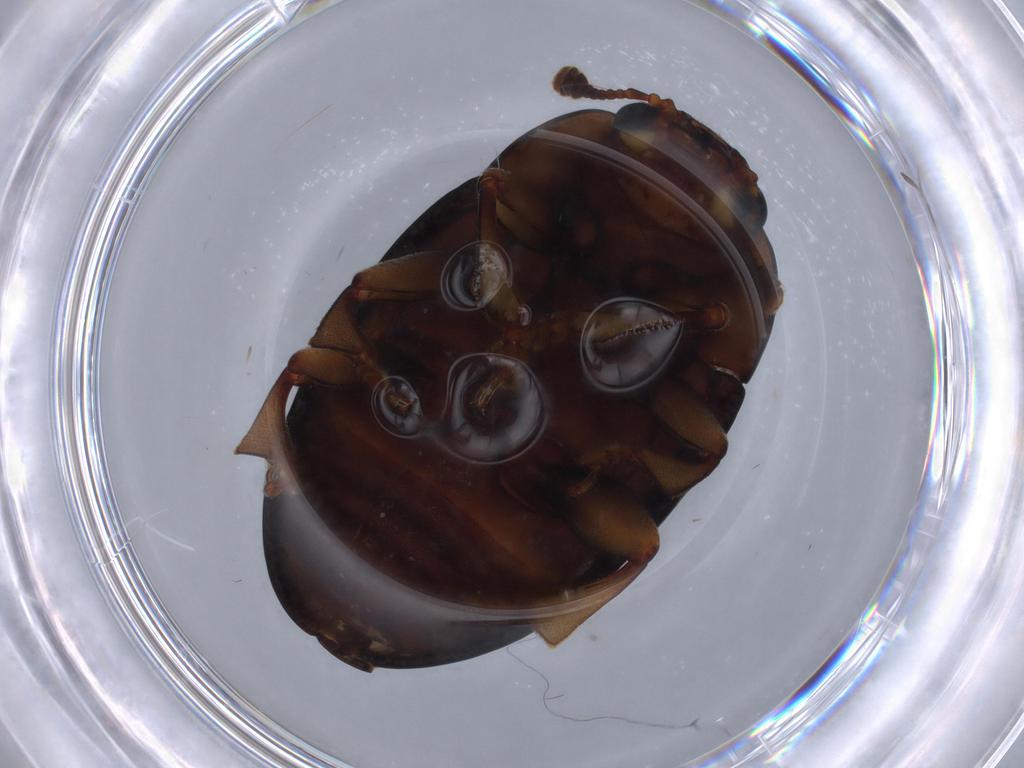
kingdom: Animalia
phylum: Arthropoda
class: Insecta
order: Coleoptera
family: Erotylidae
